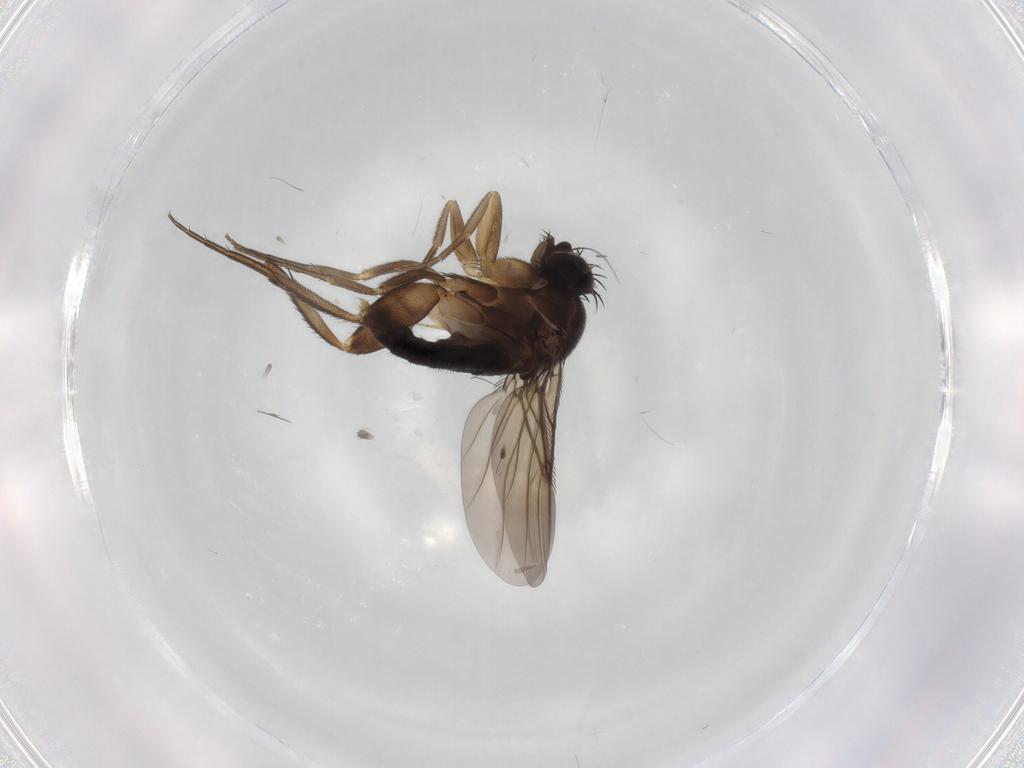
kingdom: Animalia
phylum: Arthropoda
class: Insecta
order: Diptera
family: Phoridae
